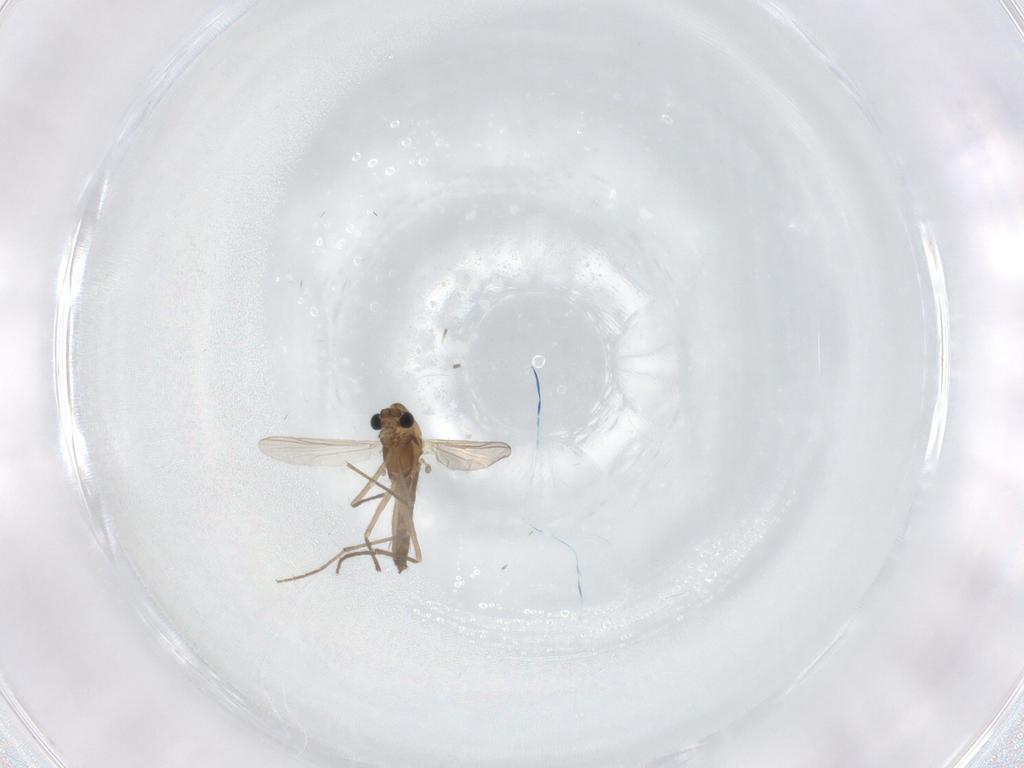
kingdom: Animalia
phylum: Arthropoda
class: Insecta
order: Diptera
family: Chironomidae
